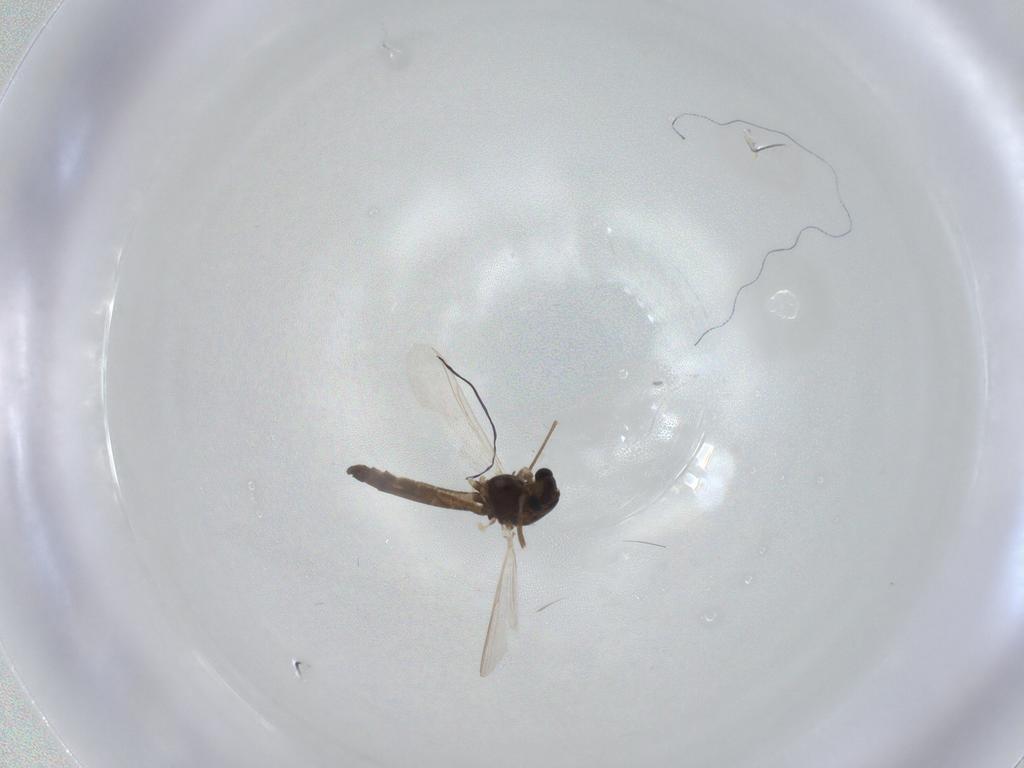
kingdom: Animalia
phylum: Arthropoda
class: Insecta
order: Diptera
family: Chironomidae
